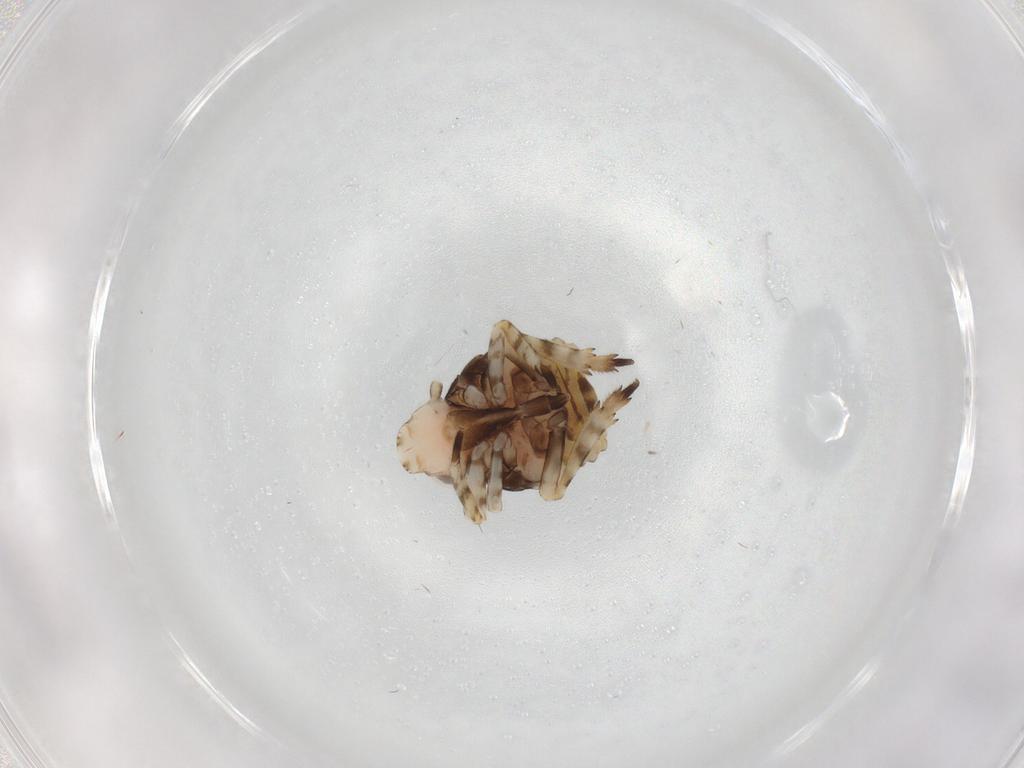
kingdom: Animalia
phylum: Arthropoda
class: Insecta
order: Hemiptera
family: Eurybrachidae
